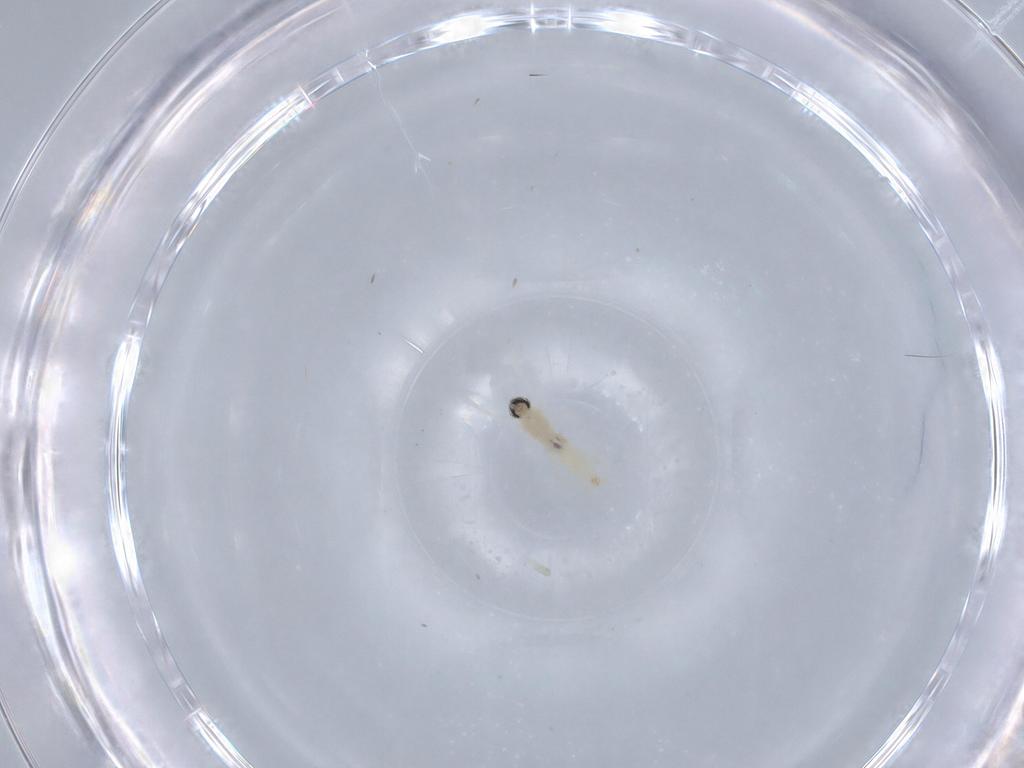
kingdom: Animalia
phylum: Arthropoda
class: Insecta
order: Diptera
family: Cecidomyiidae
